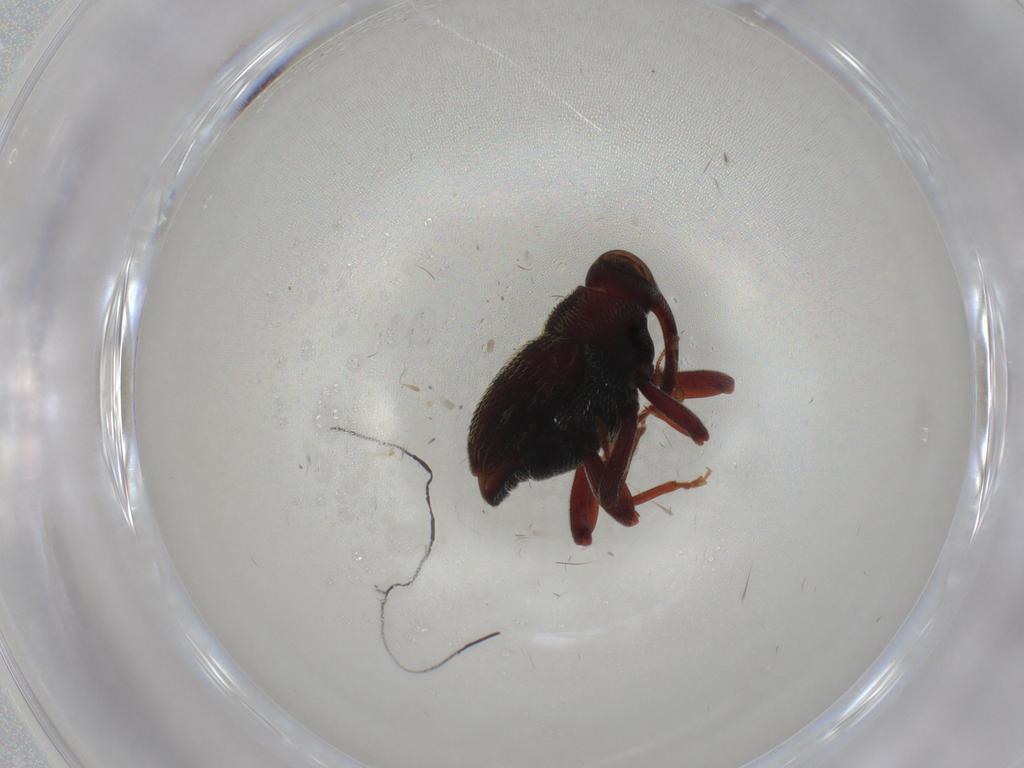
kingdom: Animalia
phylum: Arthropoda
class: Insecta
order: Coleoptera
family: Curculionidae
